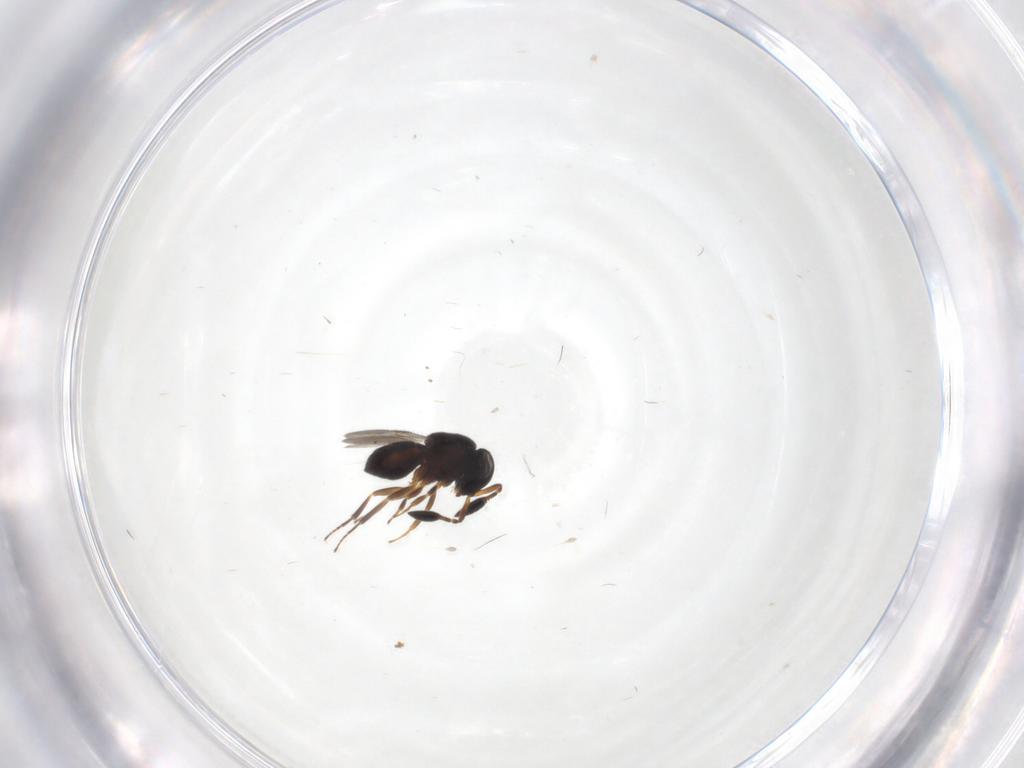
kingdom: Animalia
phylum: Arthropoda
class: Insecta
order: Hymenoptera
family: Scelionidae
